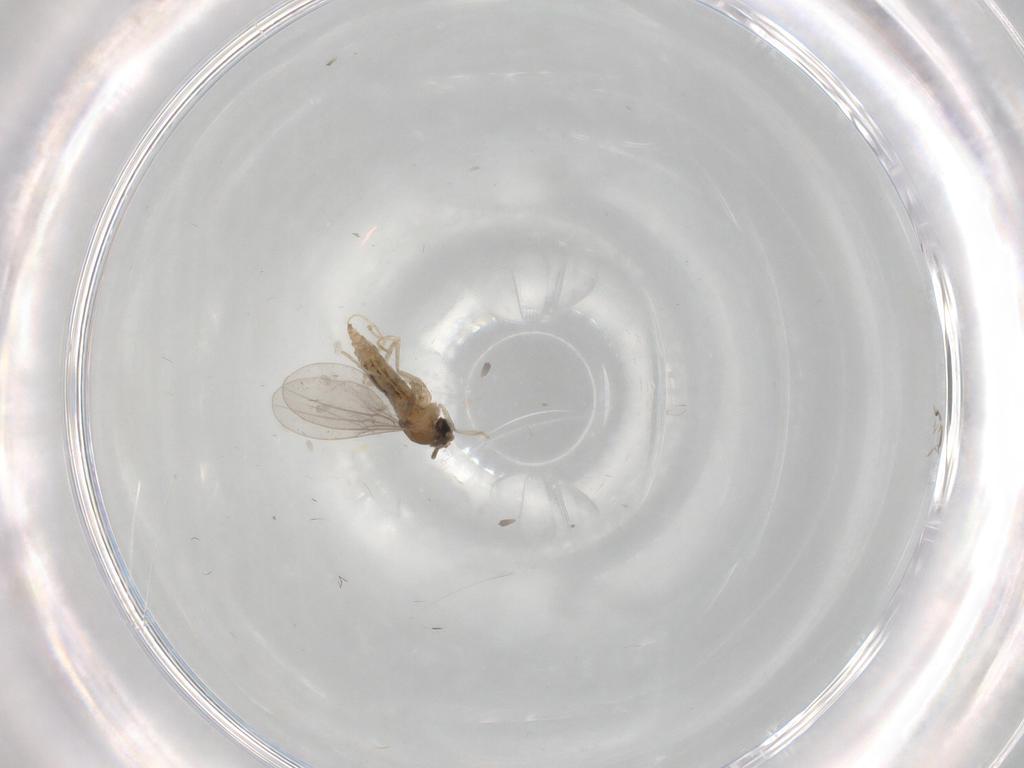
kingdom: Animalia
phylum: Arthropoda
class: Insecta
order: Diptera
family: Cecidomyiidae
